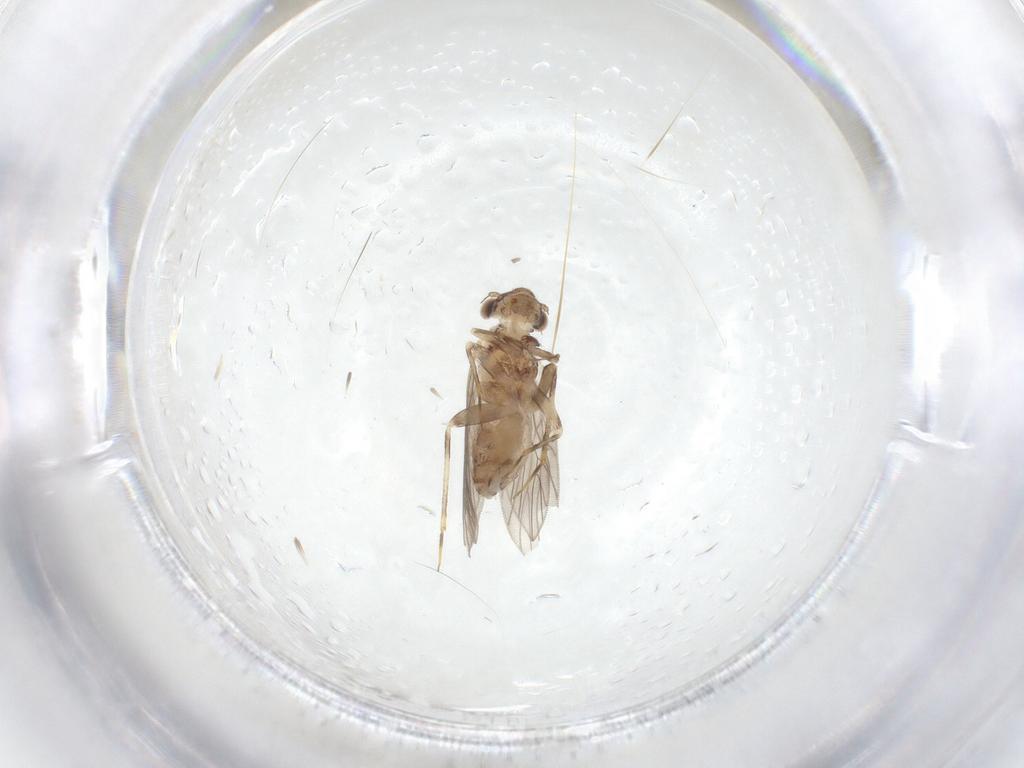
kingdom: Animalia
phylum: Arthropoda
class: Insecta
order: Psocodea
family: Lepidopsocidae
